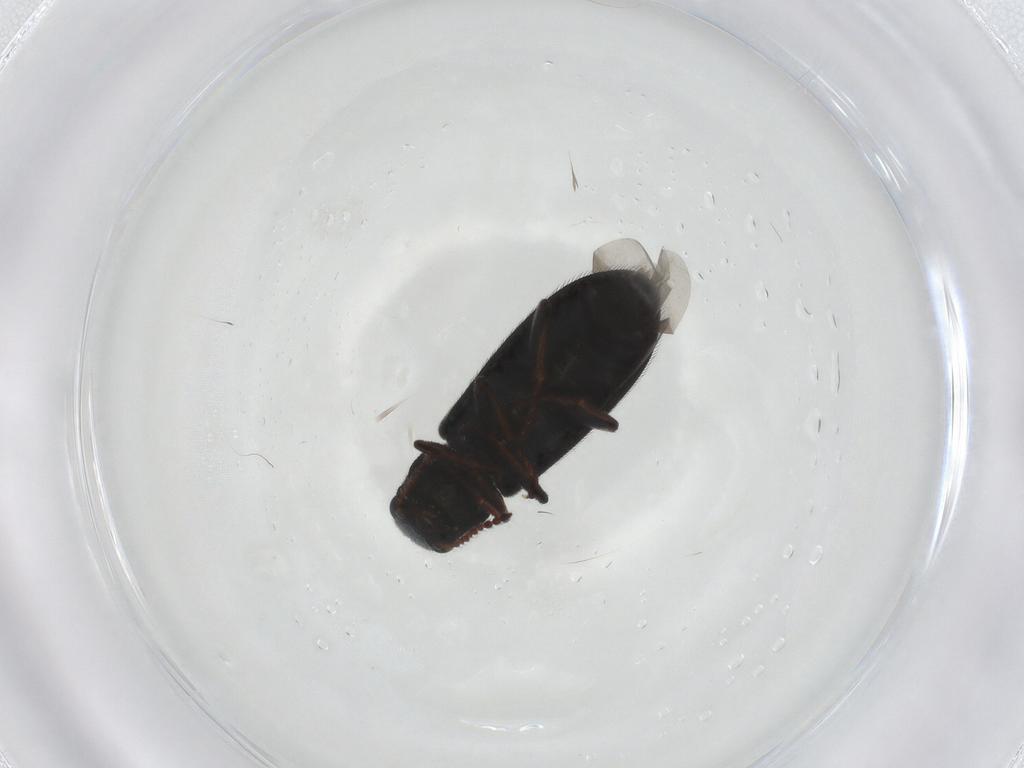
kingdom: Animalia
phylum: Arthropoda
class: Insecta
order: Coleoptera
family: Melyridae
